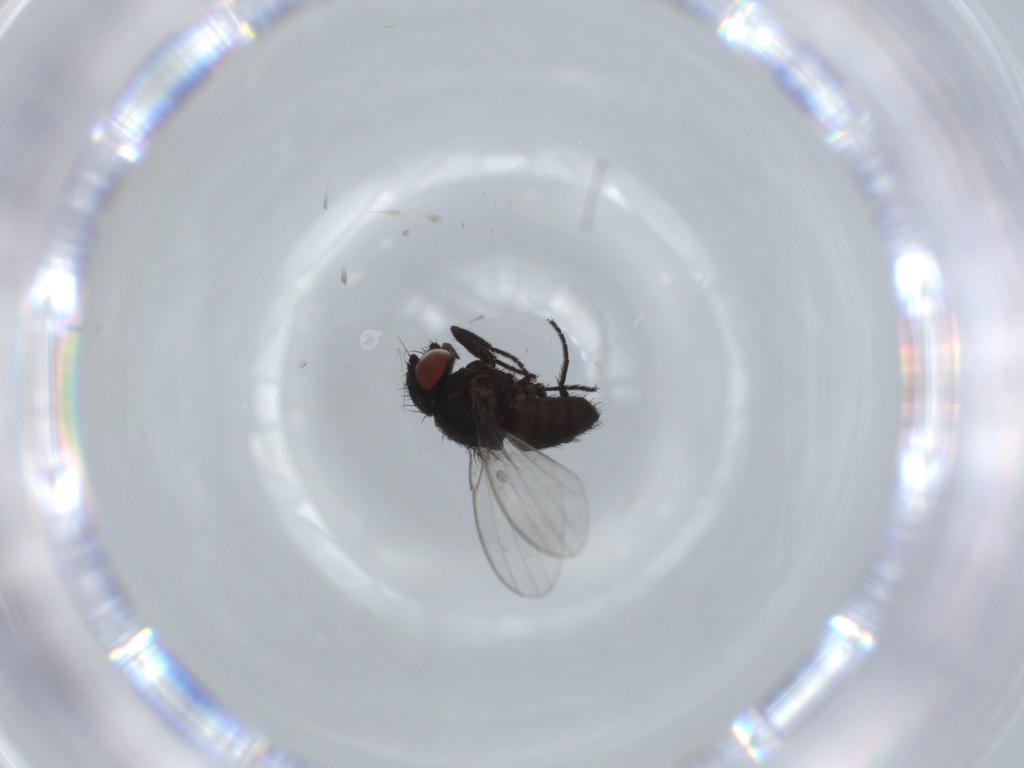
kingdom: Animalia
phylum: Arthropoda
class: Insecta
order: Diptera
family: Milichiidae
